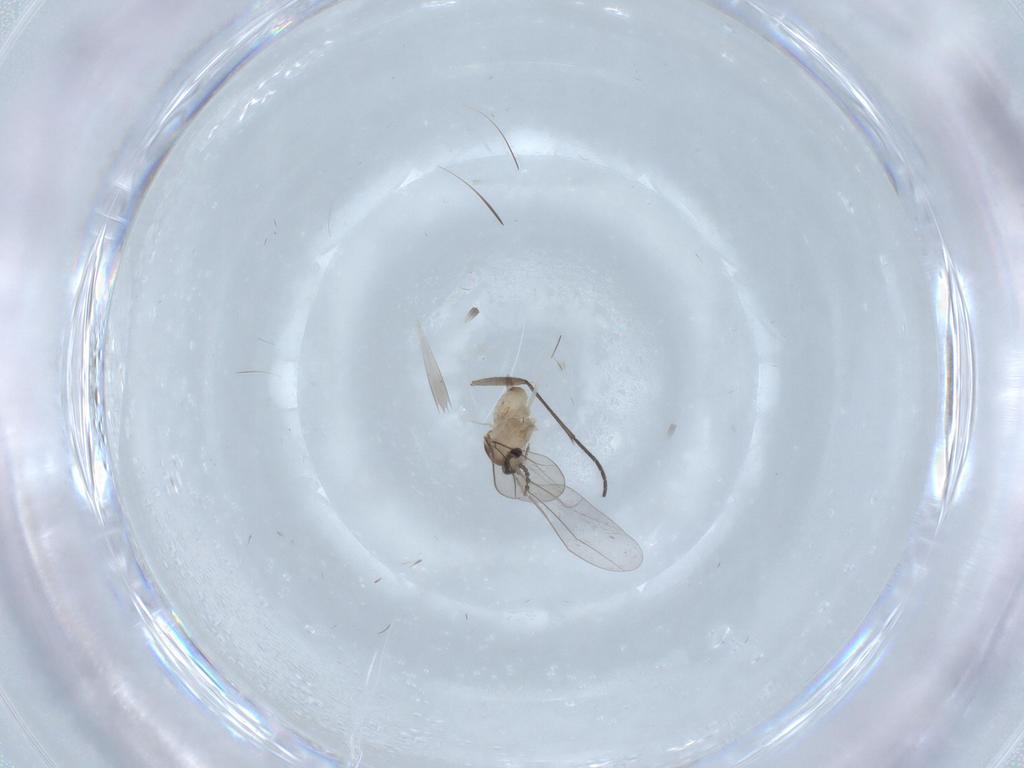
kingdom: Animalia
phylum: Arthropoda
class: Insecta
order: Diptera
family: Cecidomyiidae
